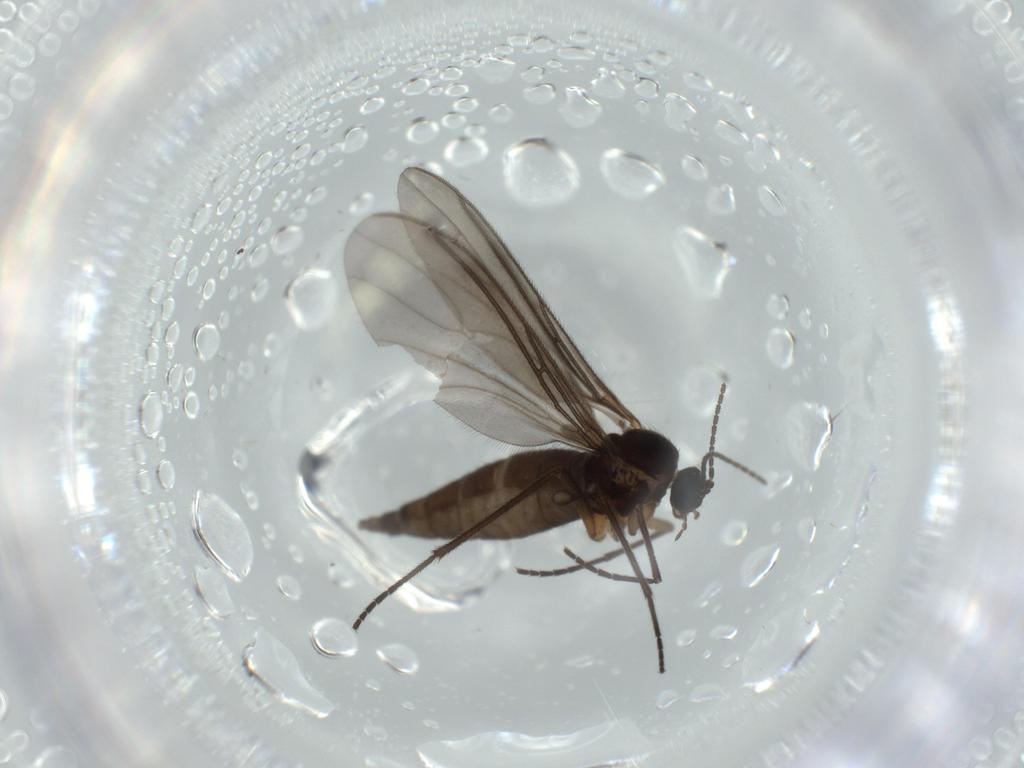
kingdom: Animalia
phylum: Arthropoda
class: Insecta
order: Diptera
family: Sciaridae
